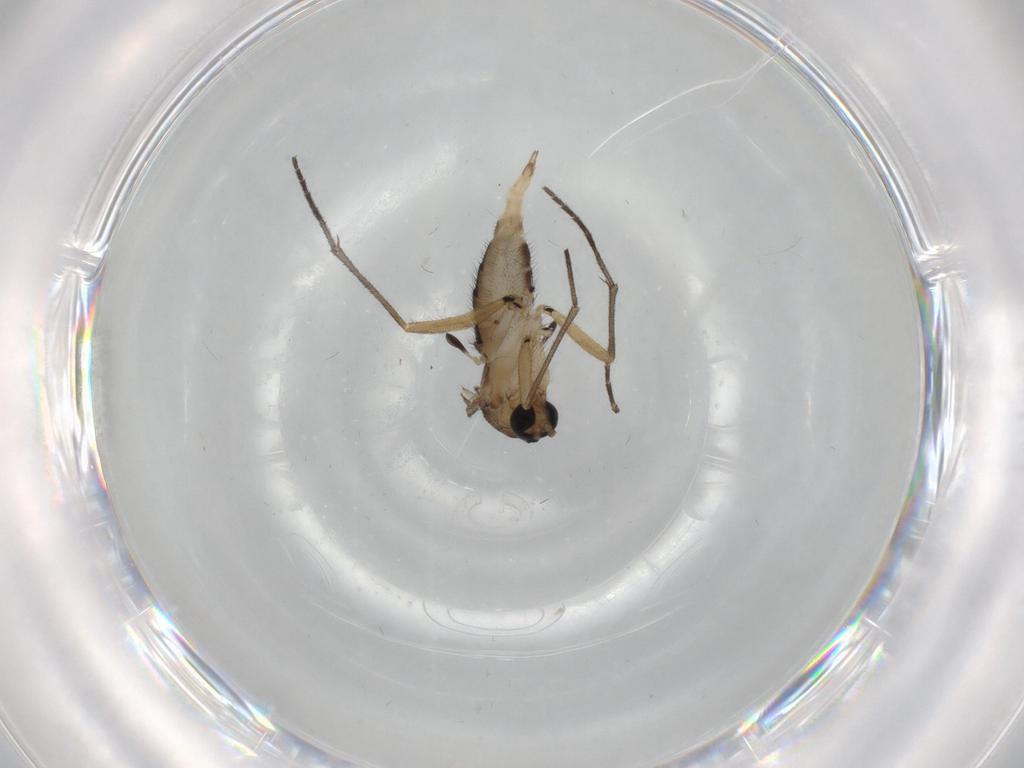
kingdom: Animalia
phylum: Arthropoda
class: Insecta
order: Diptera
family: Sciaridae
